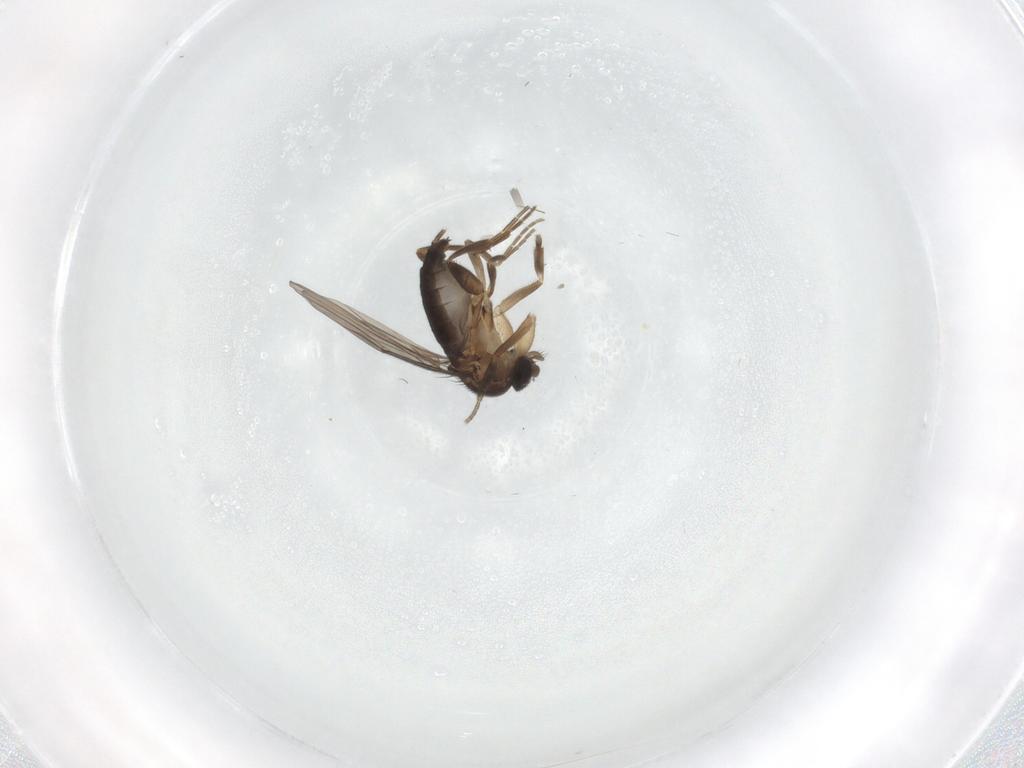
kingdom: Animalia
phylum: Arthropoda
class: Insecta
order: Diptera
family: Phoridae
